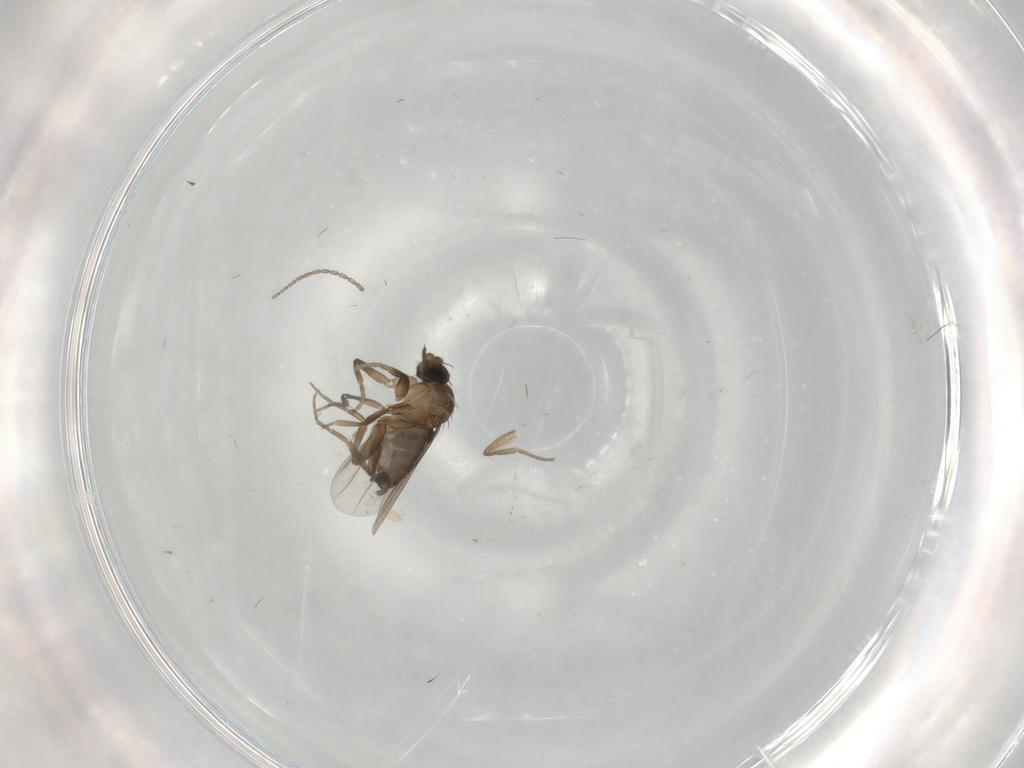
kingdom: Animalia
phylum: Arthropoda
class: Insecta
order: Diptera
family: Phoridae
